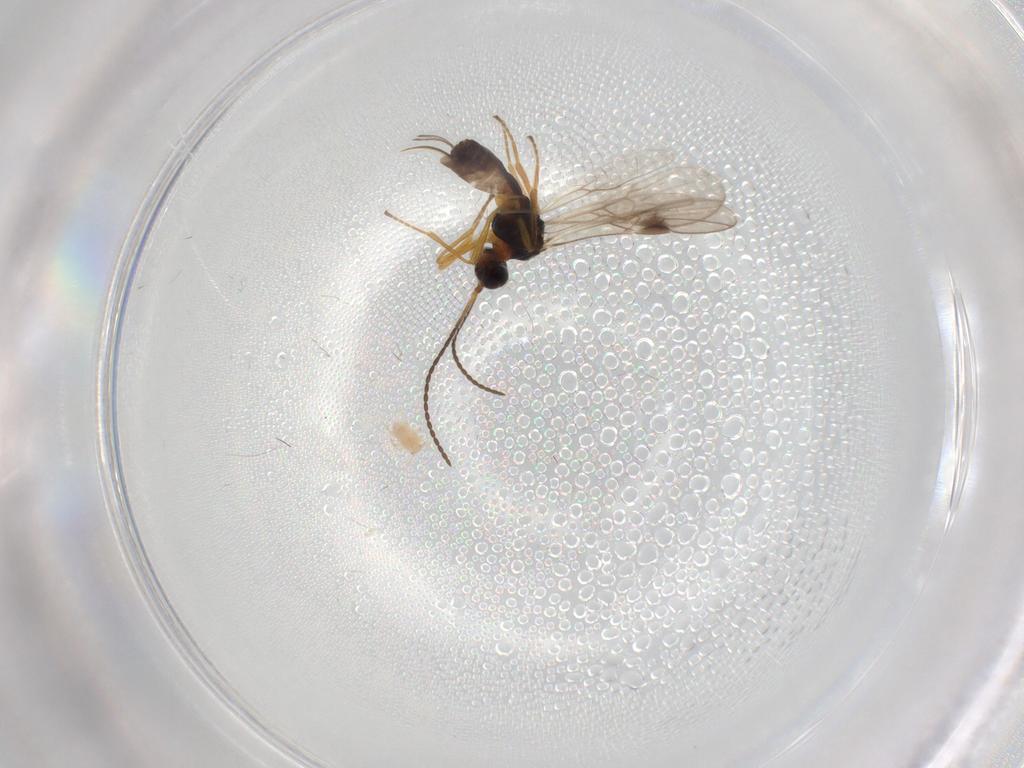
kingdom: Animalia
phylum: Arthropoda
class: Insecta
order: Hymenoptera
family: Braconidae
